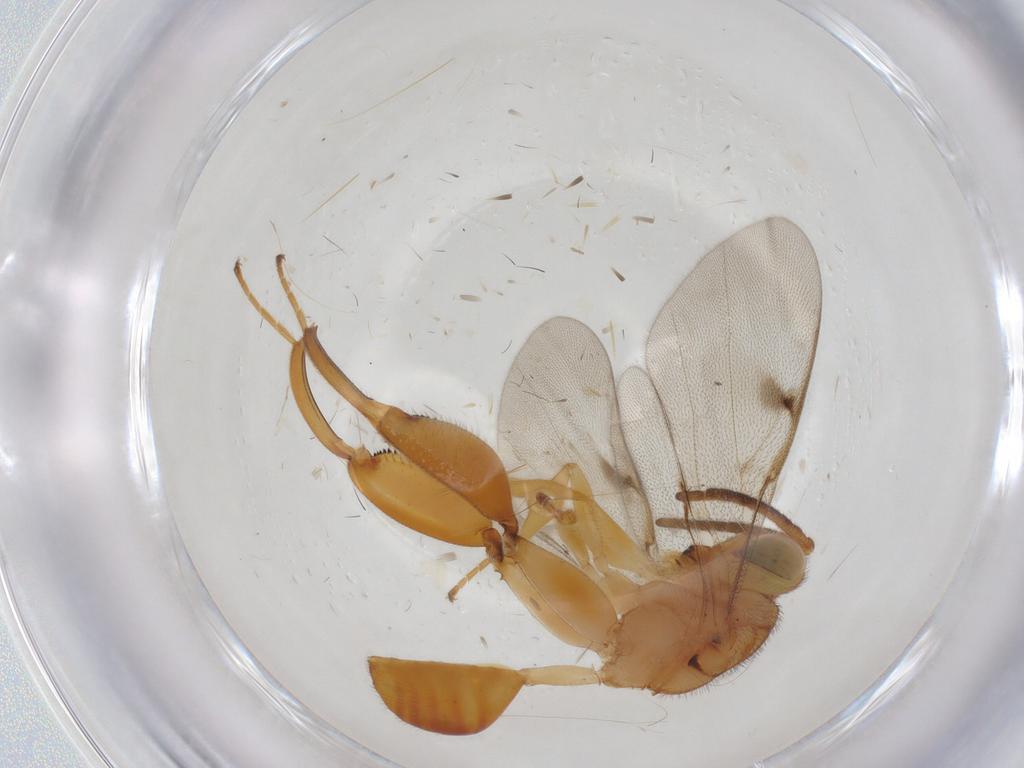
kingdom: Animalia
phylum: Arthropoda
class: Insecta
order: Hymenoptera
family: Chalcididae
